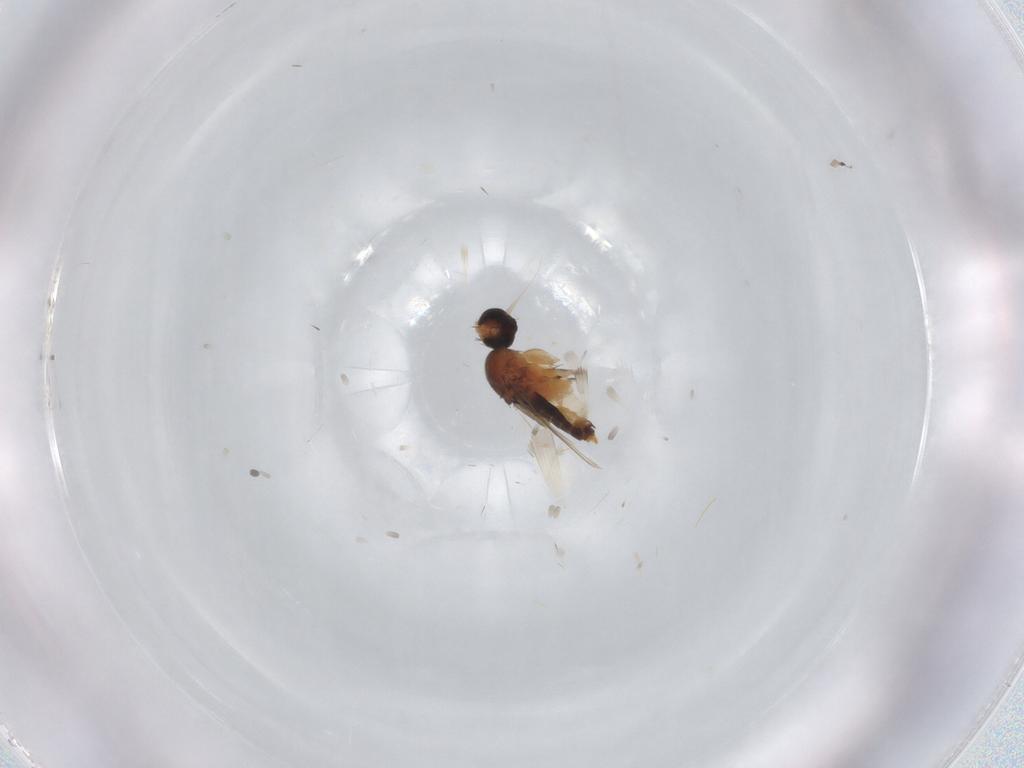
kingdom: Animalia
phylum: Arthropoda
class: Insecta
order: Diptera
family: Phoridae
